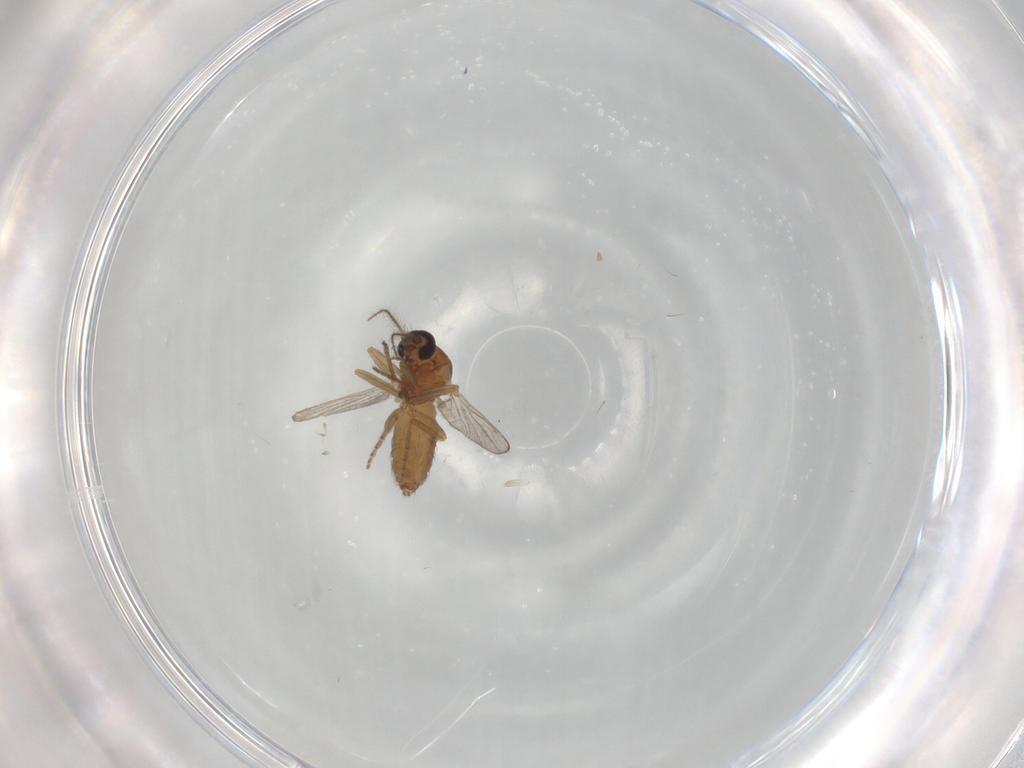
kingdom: Animalia
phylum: Arthropoda
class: Insecta
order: Diptera
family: Ceratopogonidae
